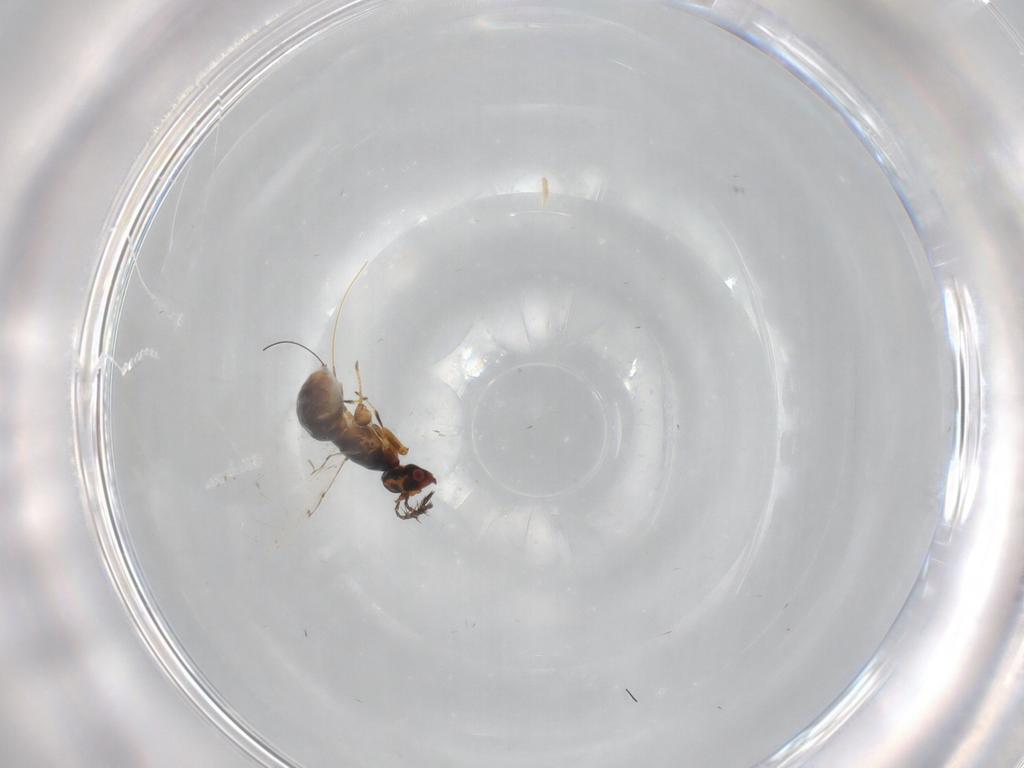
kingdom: Animalia
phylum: Arthropoda
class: Insecta
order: Hymenoptera
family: Agaonidae
